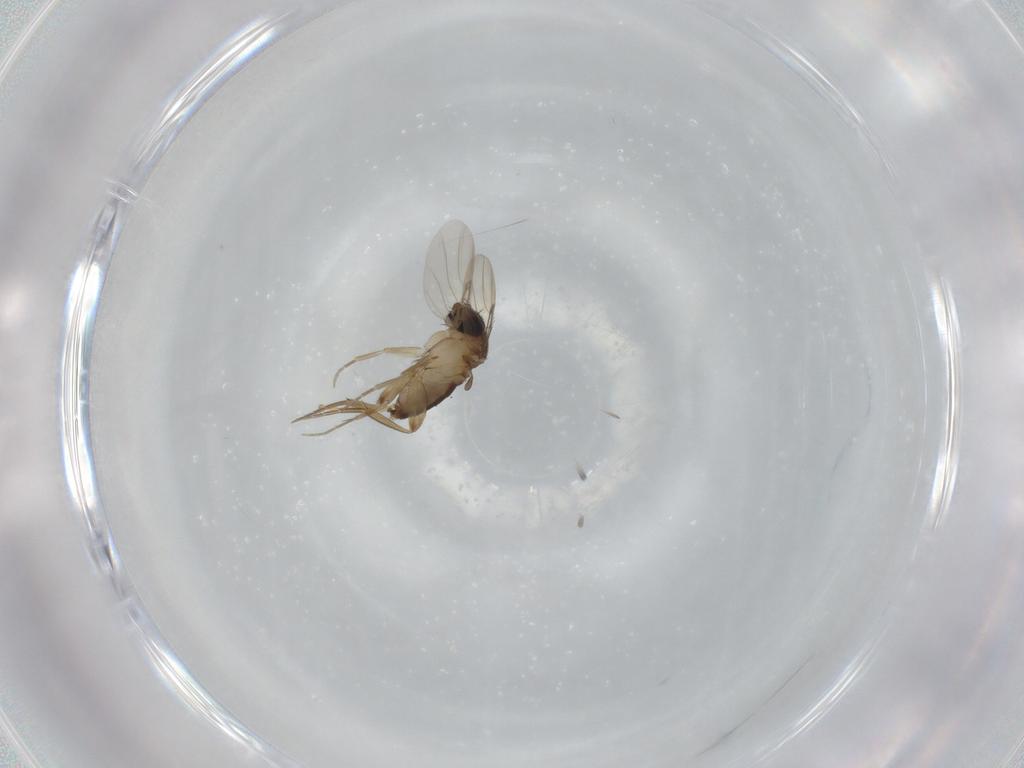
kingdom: Animalia
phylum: Arthropoda
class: Insecta
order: Diptera
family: Phoridae
